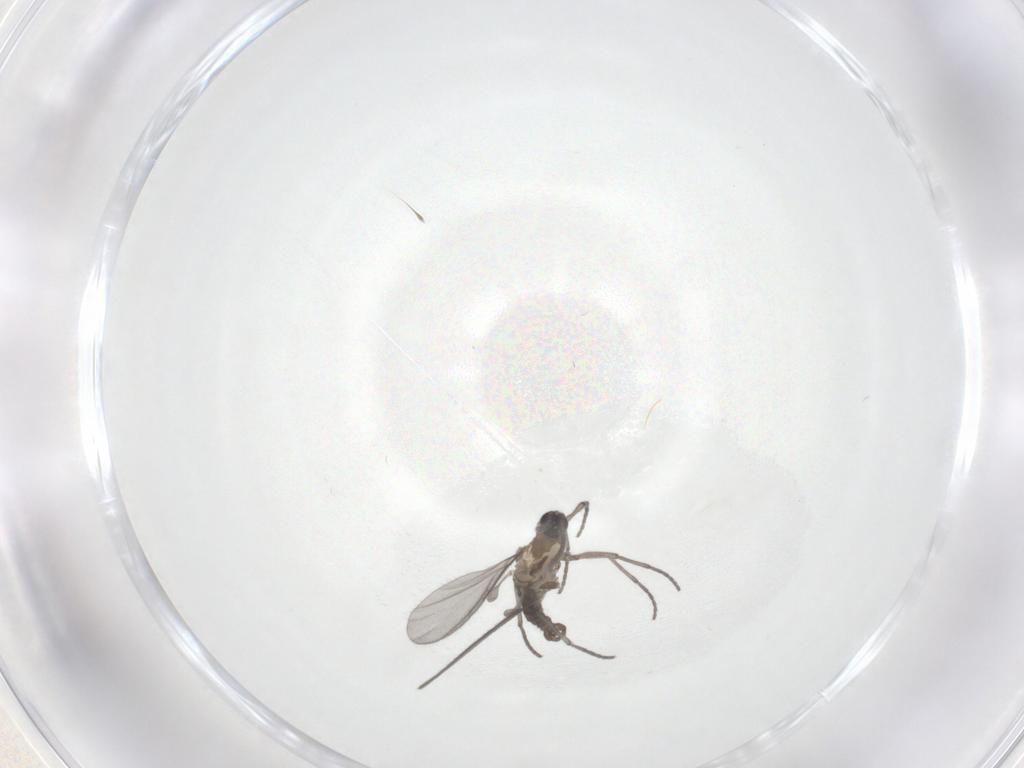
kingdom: Animalia
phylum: Arthropoda
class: Insecta
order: Diptera
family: Sciaridae
